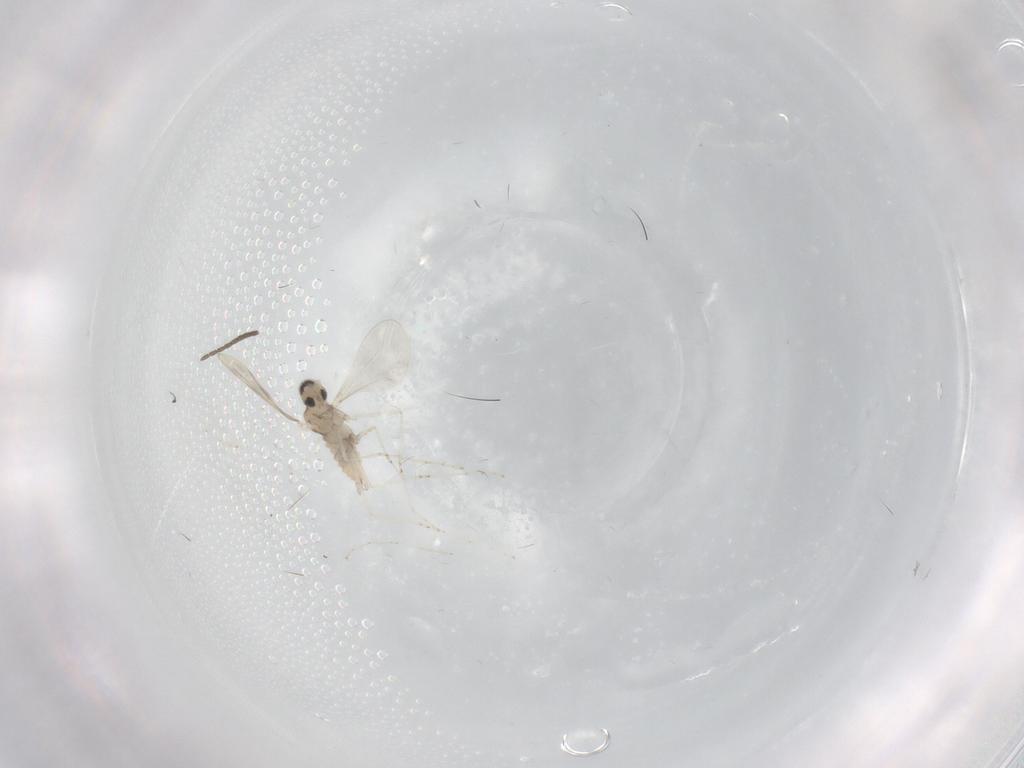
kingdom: Animalia
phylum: Arthropoda
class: Insecta
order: Diptera
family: Cecidomyiidae
